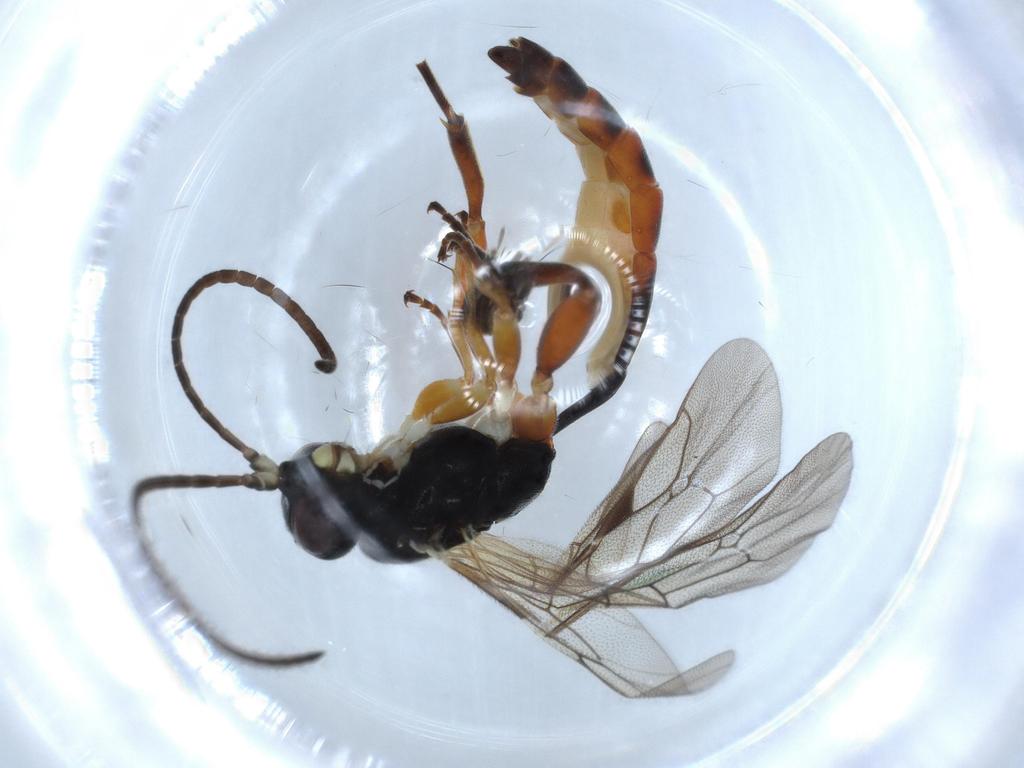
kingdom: Animalia
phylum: Arthropoda
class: Insecta
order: Hymenoptera
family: Ichneumonidae
